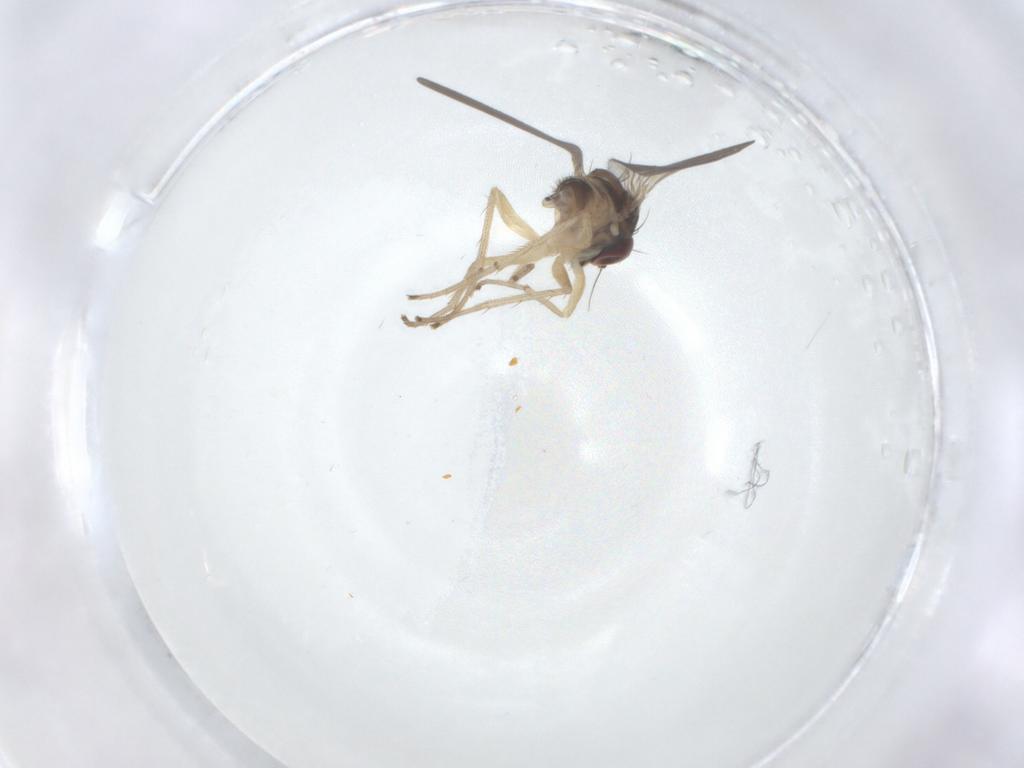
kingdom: Animalia
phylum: Arthropoda
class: Insecta
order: Diptera
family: Dolichopodidae
